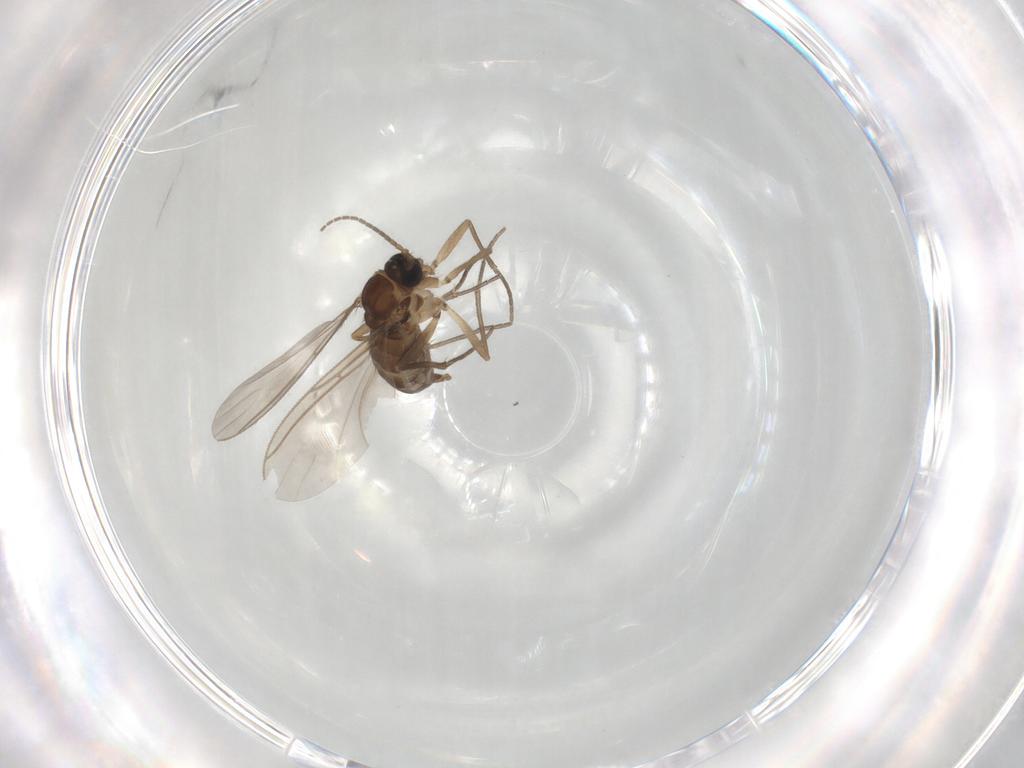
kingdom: Animalia
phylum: Arthropoda
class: Insecta
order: Diptera
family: Sciaridae
